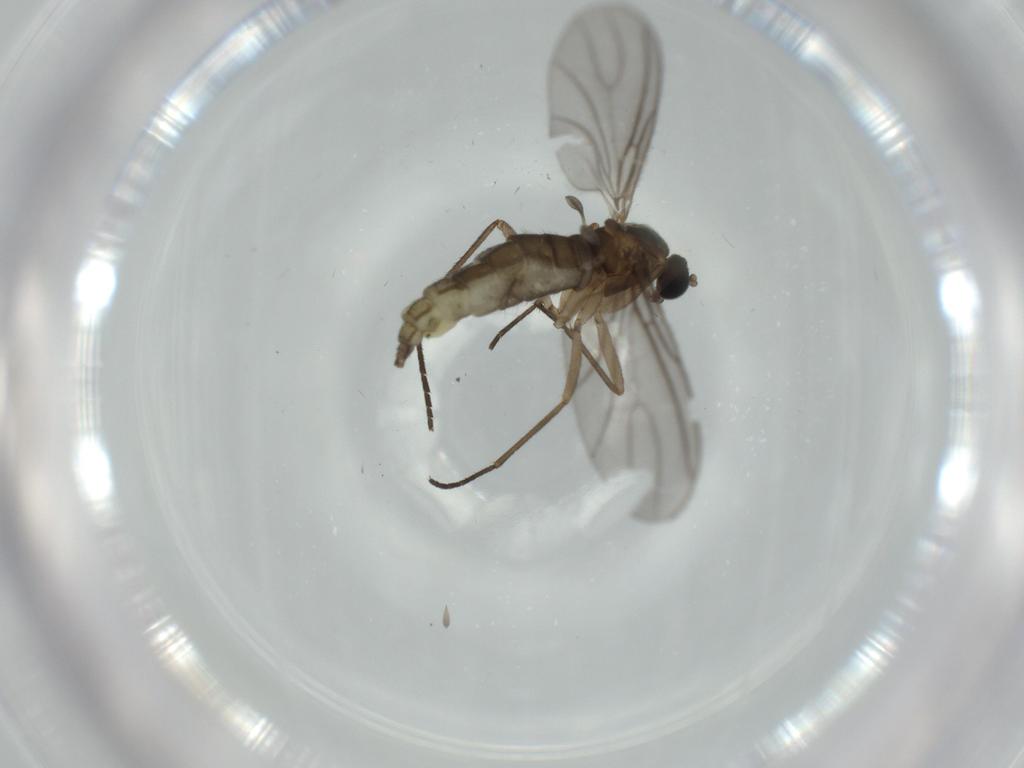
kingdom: Animalia
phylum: Arthropoda
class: Insecta
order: Diptera
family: Sciaridae
